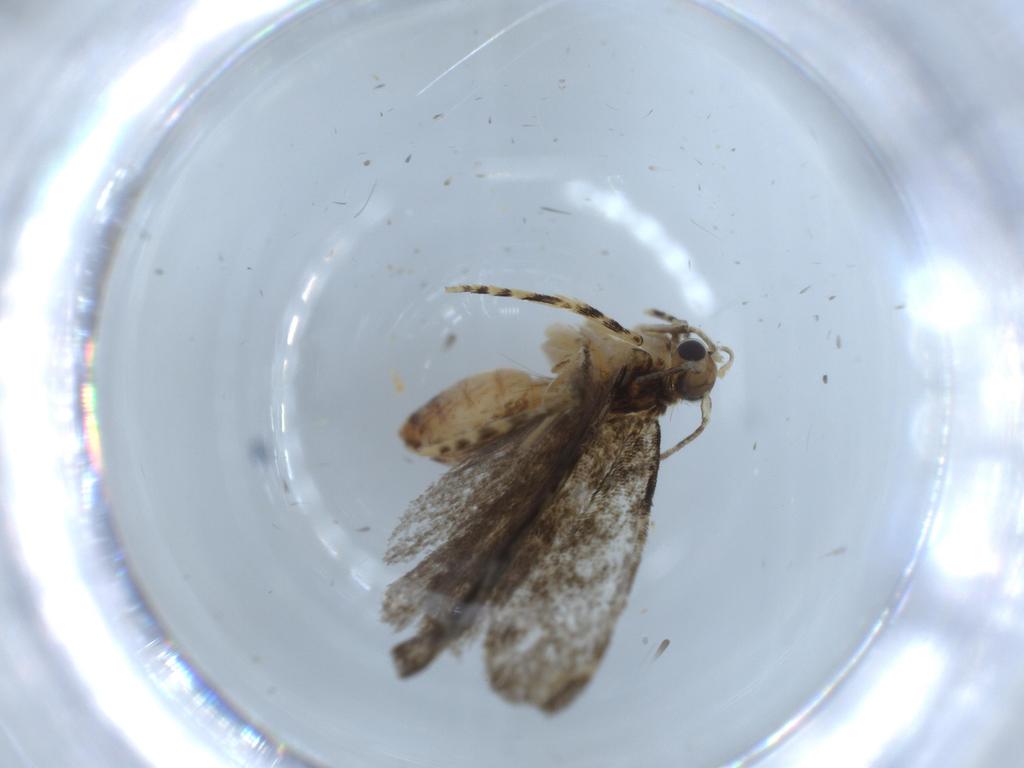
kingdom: Animalia
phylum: Arthropoda
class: Insecta
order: Lepidoptera
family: Tineidae
